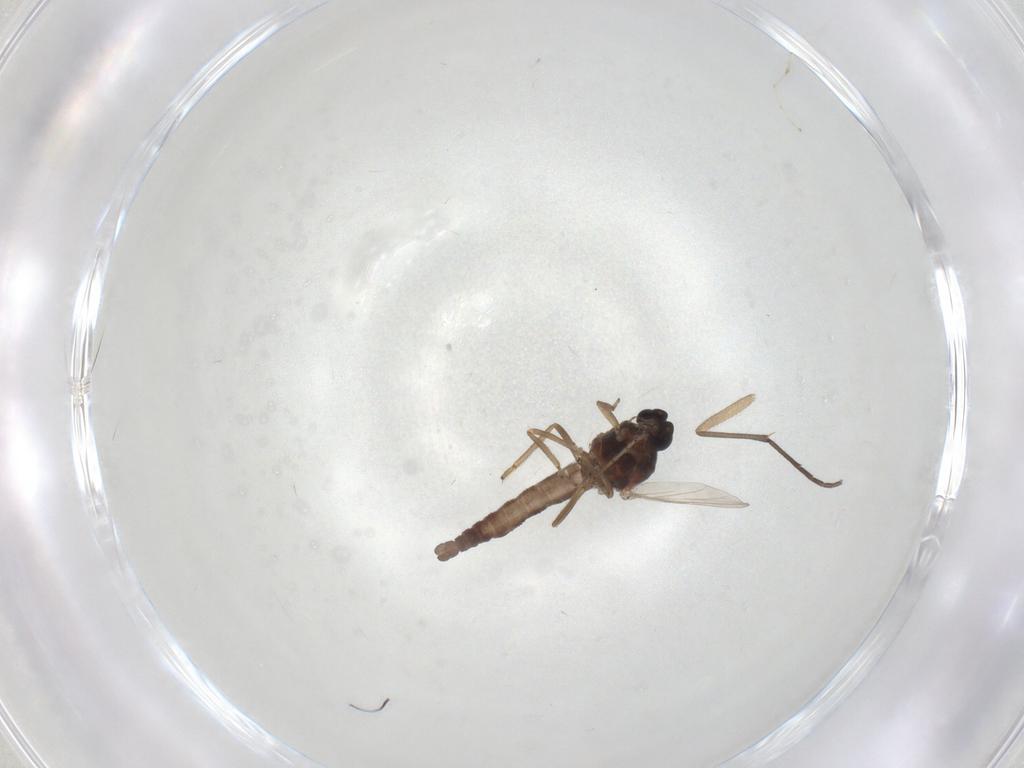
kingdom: Animalia
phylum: Arthropoda
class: Insecta
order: Diptera
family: Ceratopogonidae
